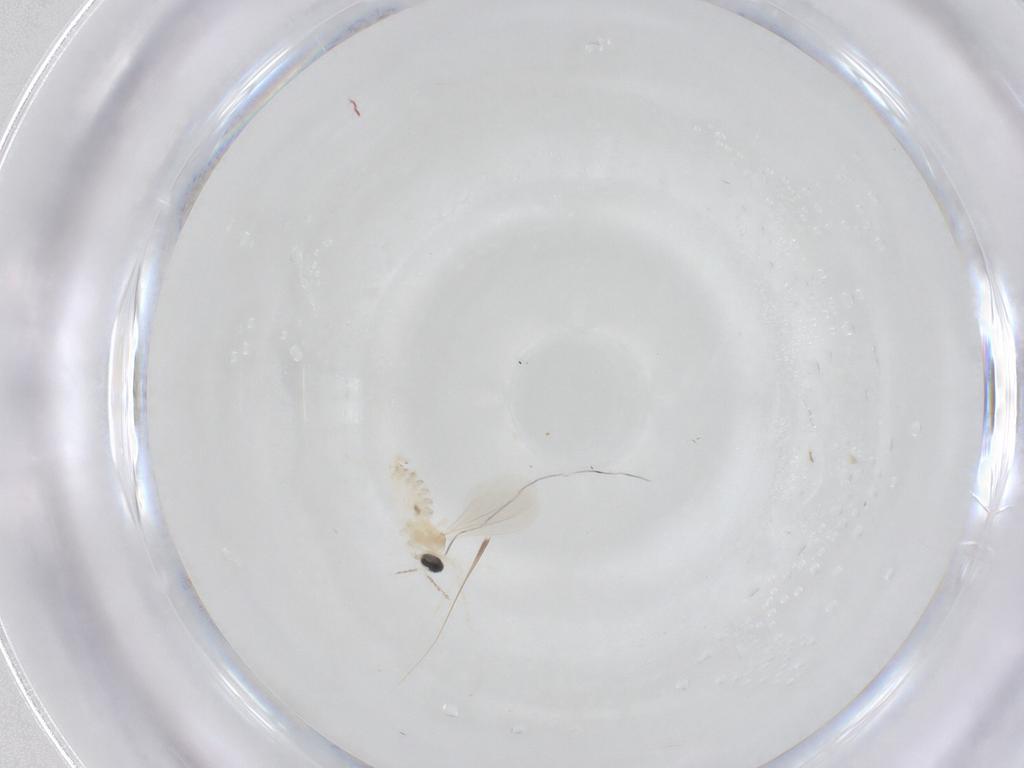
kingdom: Animalia
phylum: Arthropoda
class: Insecta
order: Diptera
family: Cecidomyiidae
